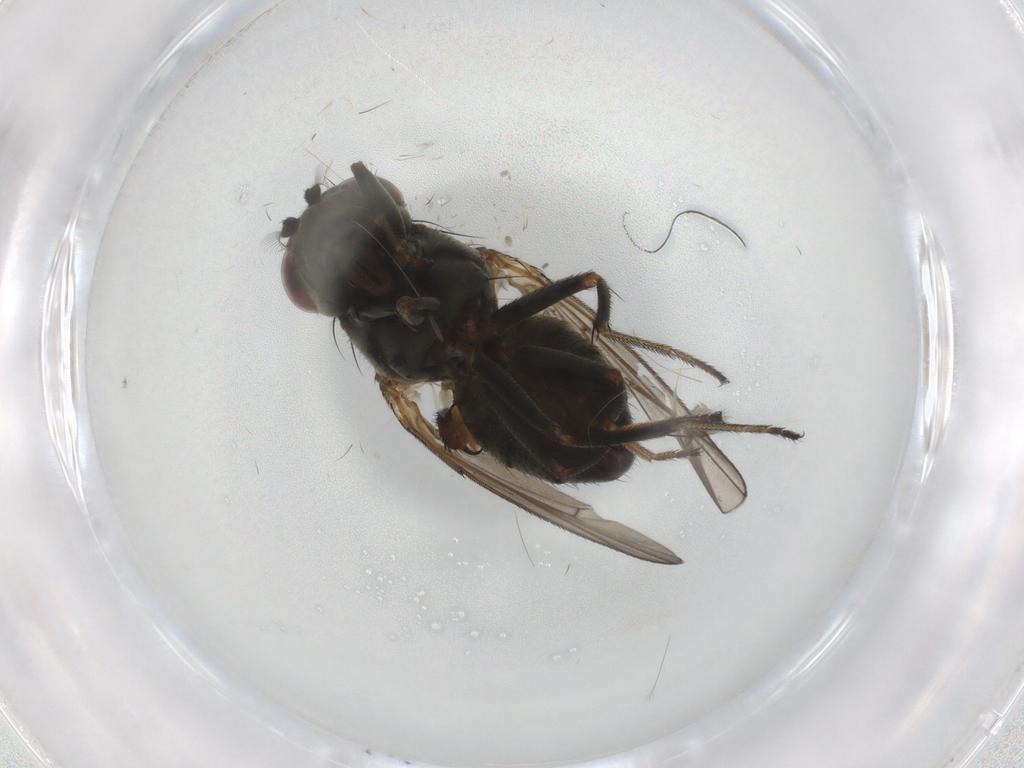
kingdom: Animalia
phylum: Arthropoda
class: Insecta
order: Diptera
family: Ephydridae
